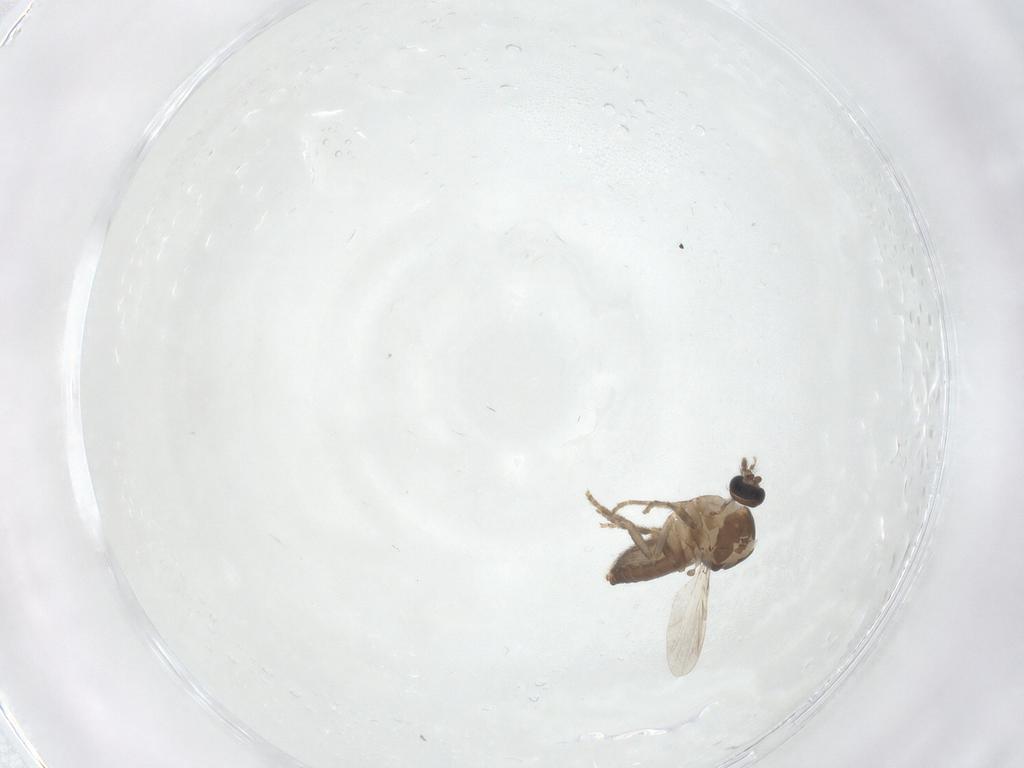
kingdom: Animalia
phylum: Arthropoda
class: Insecta
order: Diptera
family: Ceratopogonidae
